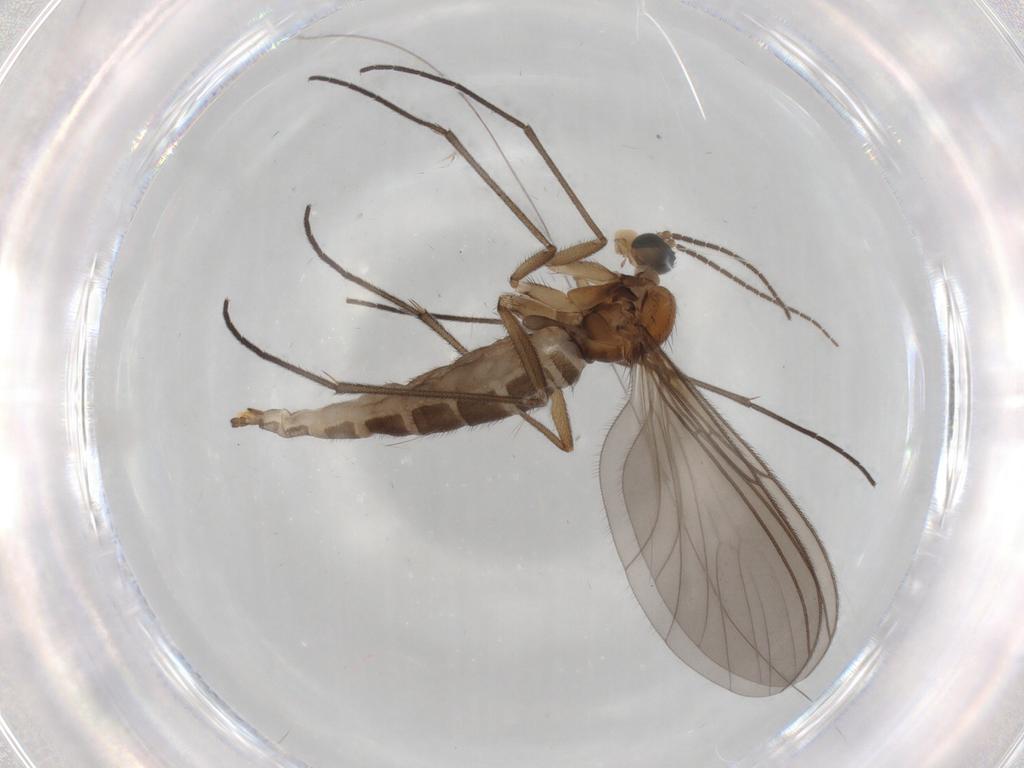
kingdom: Animalia
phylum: Arthropoda
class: Insecta
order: Diptera
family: Sciaridae
